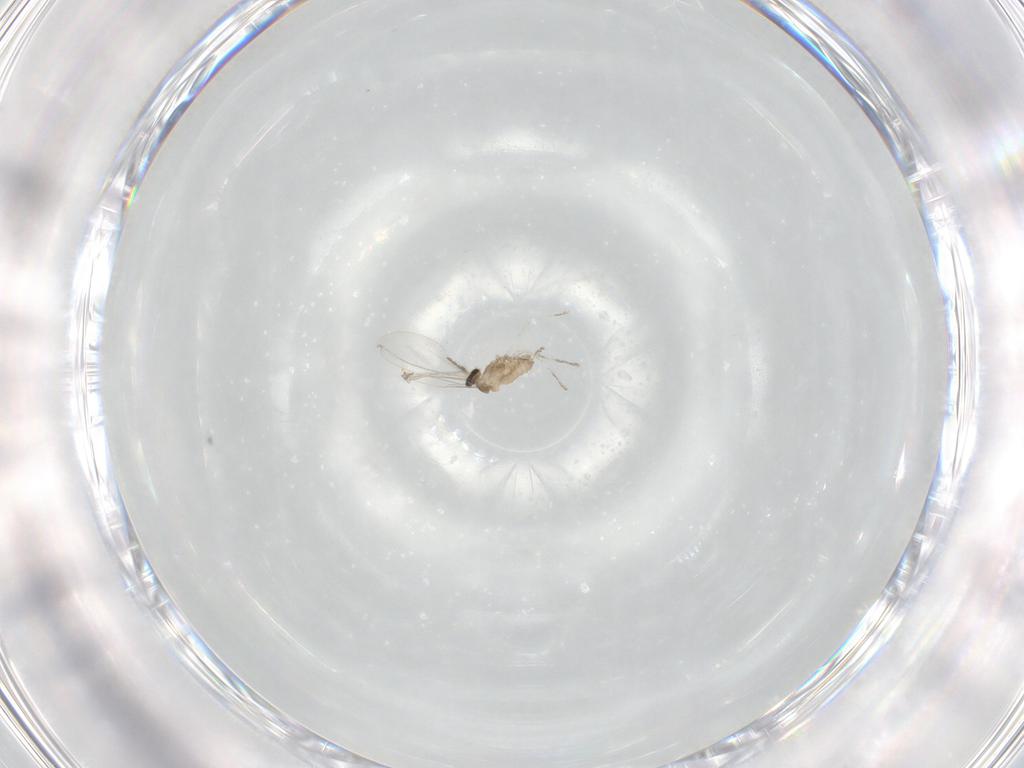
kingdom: Animalia
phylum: Arthropoda
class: Insecta
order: Diptera
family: Cecidomyiidae
